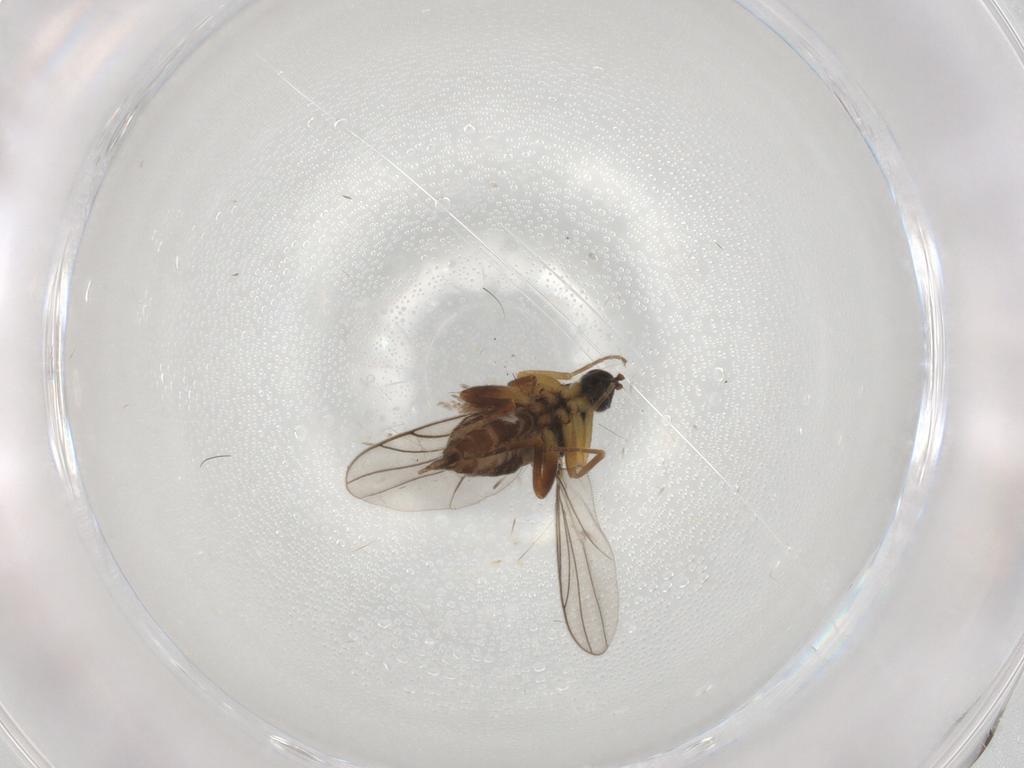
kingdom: Animalia
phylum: Arthropoda
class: Insecta
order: Diptera
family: Hybotidae
